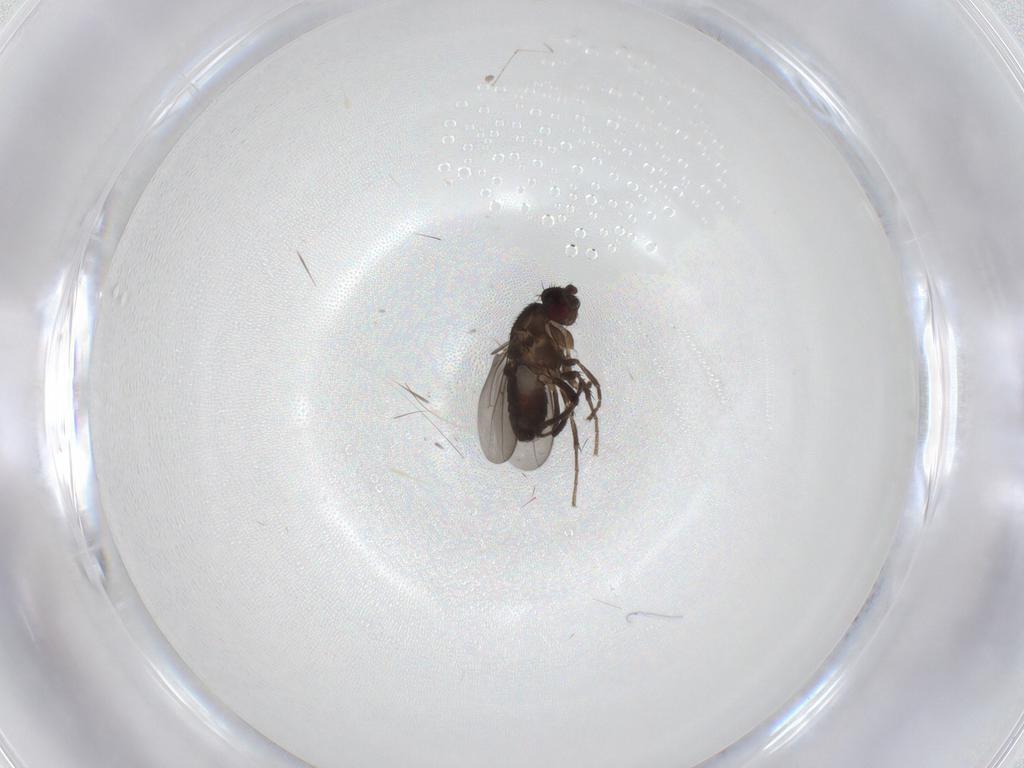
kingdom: Animalia
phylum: Arthropoda
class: Insecta
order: Diptera
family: Sphaeroceridae
